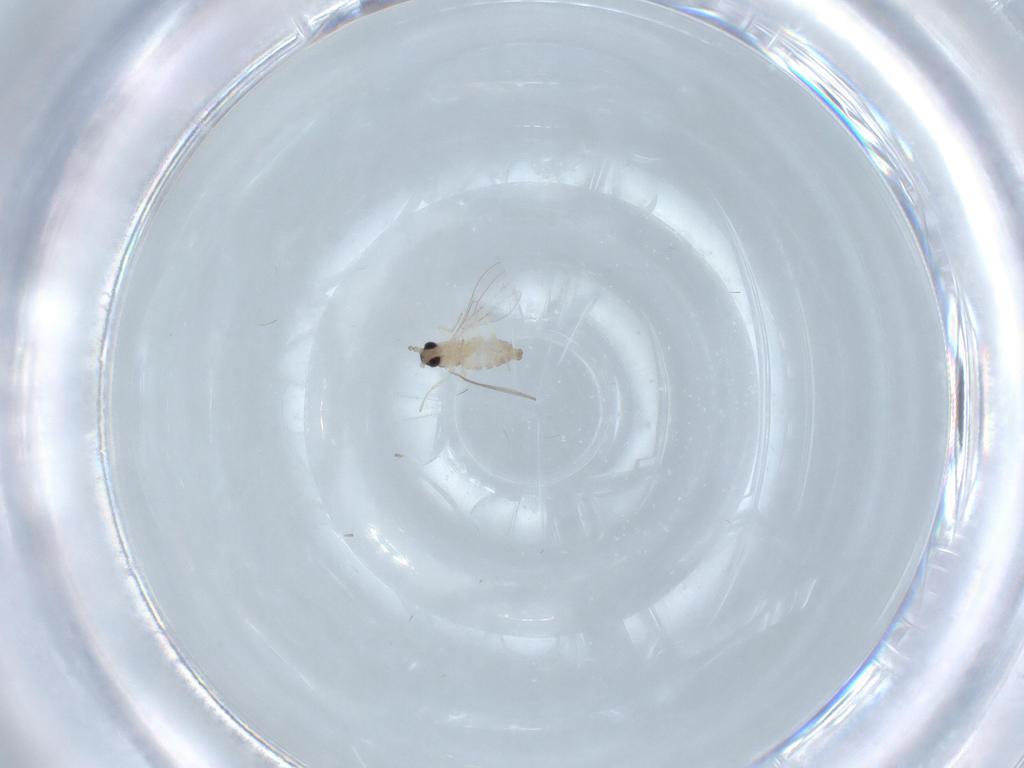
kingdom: Animalia
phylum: Arthropoda
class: Insecta
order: Diptera
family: Cecidomyiidae
